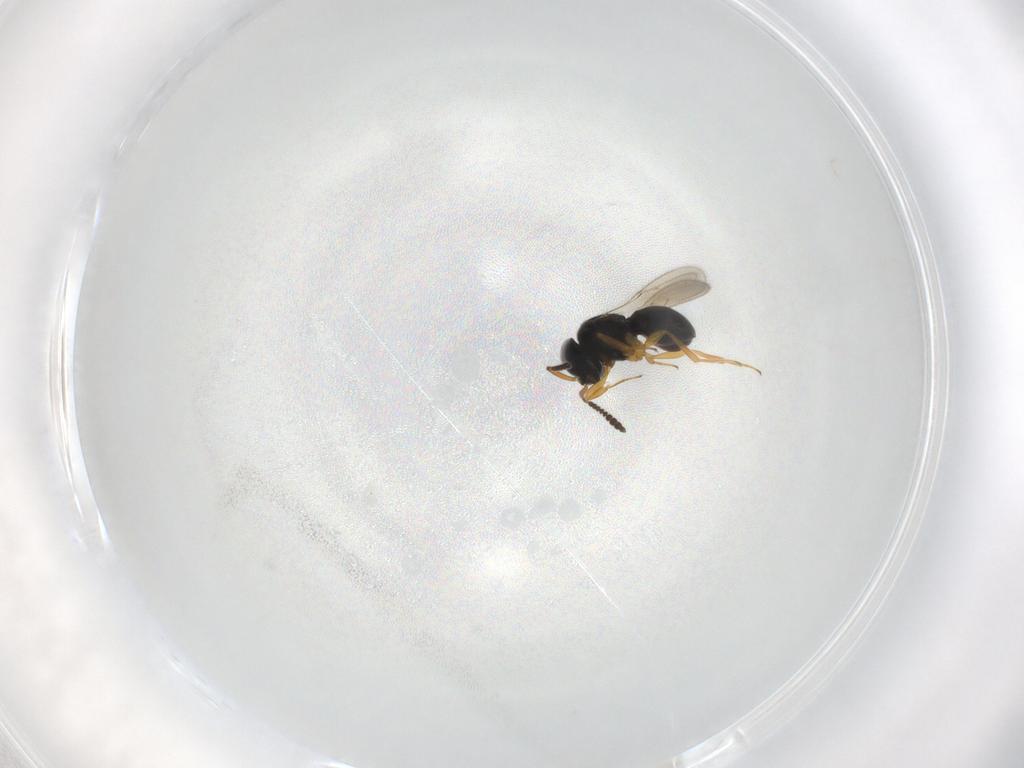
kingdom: Animalia
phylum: Arthropoda
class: Insecta
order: Hymenoptera
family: Scelionidae
